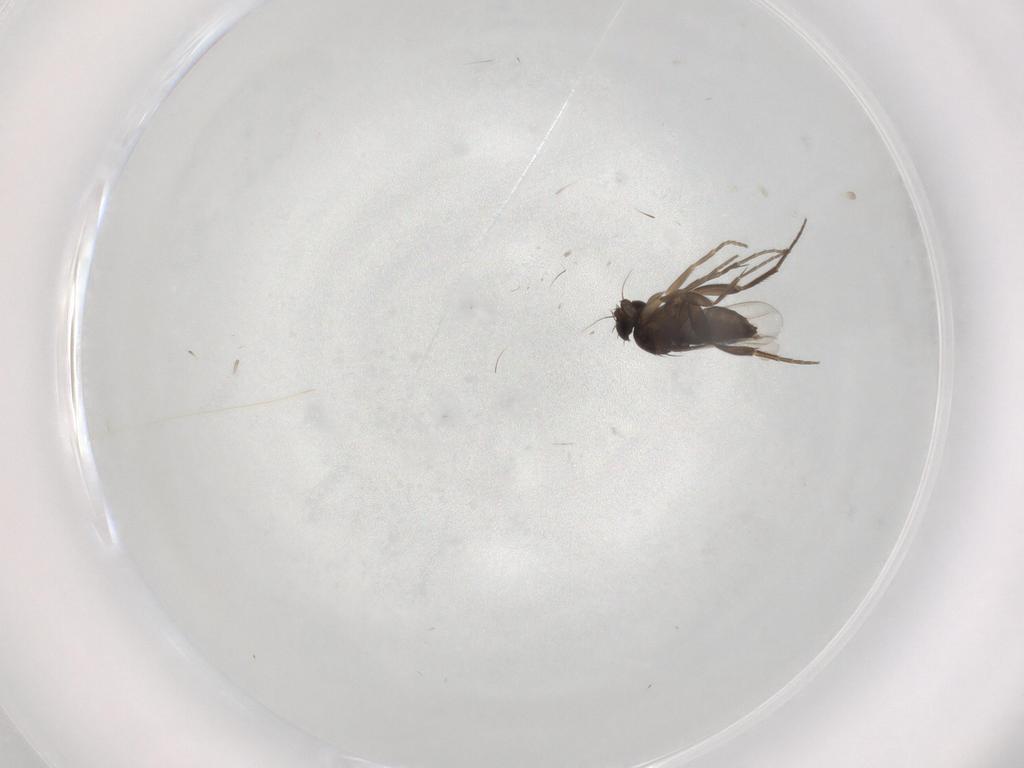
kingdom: Animalia
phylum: Arthropoda
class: Insecta
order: Diptera
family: Phoridae
